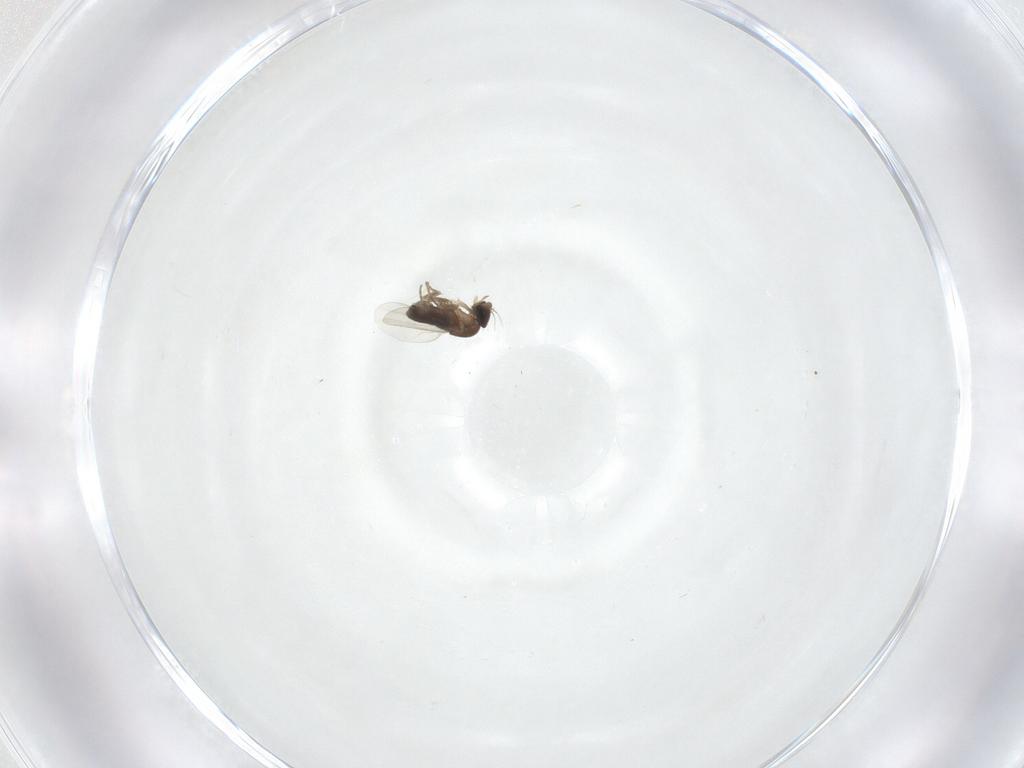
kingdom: Animalia
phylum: Arthropoda
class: Insecta
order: Diptera
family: Phoridae
